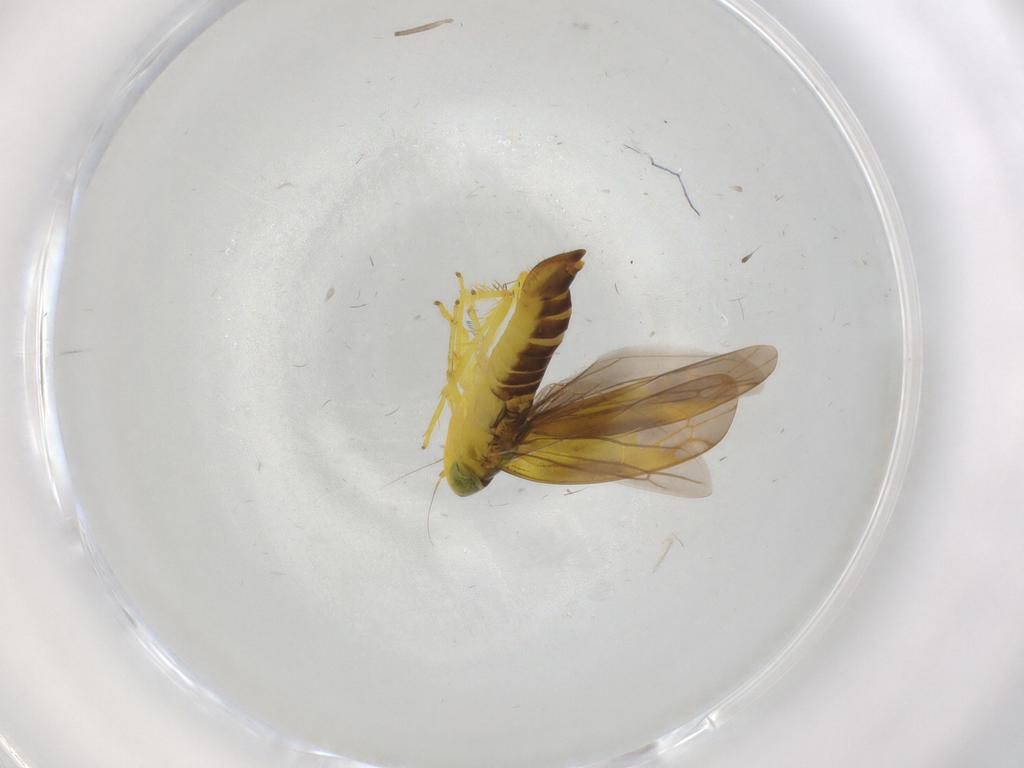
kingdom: Animalia
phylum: Arthropoda
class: Insecta
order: Hemiptera
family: Cicadellidae
